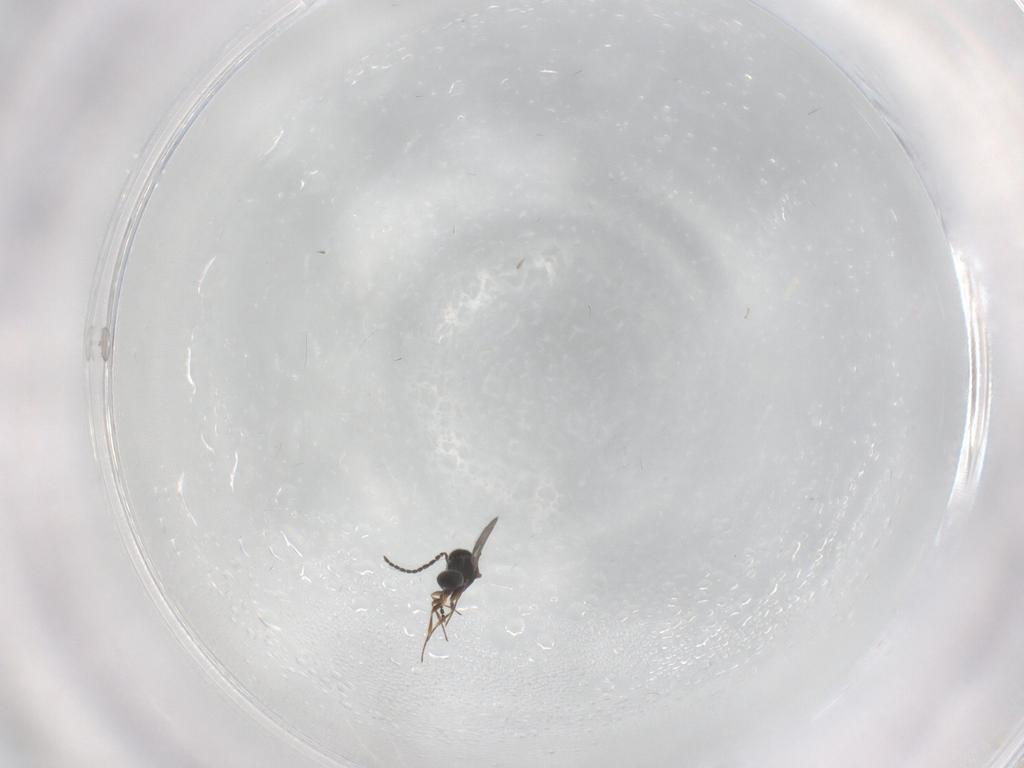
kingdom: Animalia
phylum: Arthropoda
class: Insecta
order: Hymenoptera
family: Scelionidae
